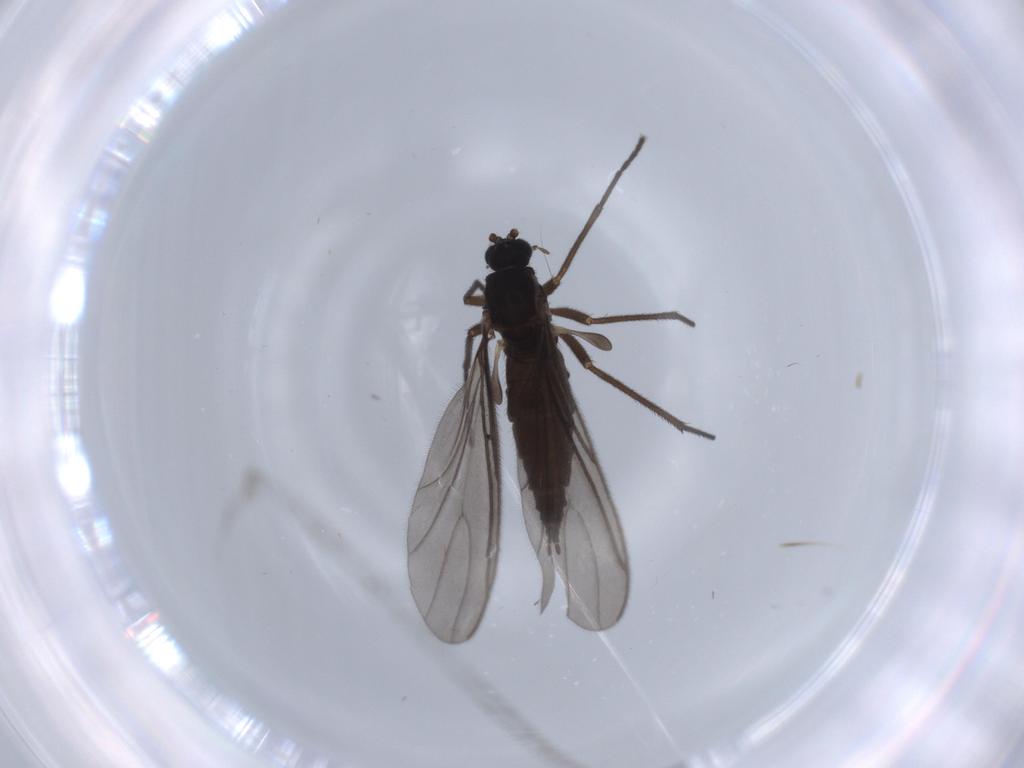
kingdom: Animalia
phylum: Arthropoda
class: Insecta
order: Diptera
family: Sciaridae
